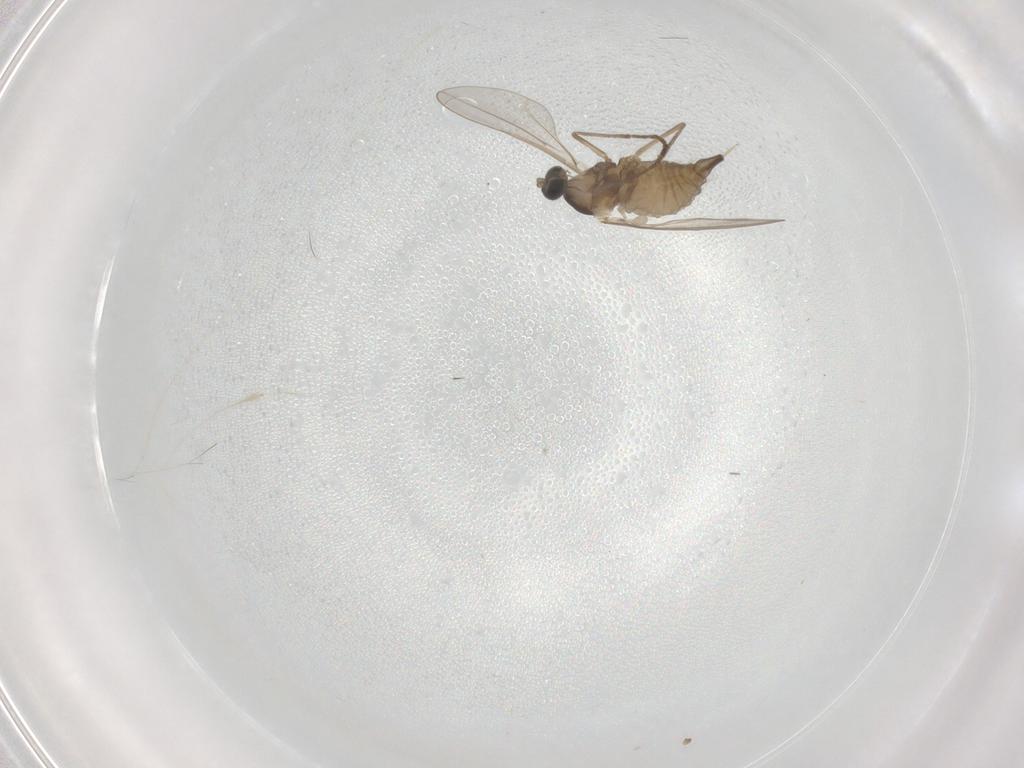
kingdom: Animalia
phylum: Arthropoda
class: Insecta
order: Diptera
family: Cecidomyiidae
